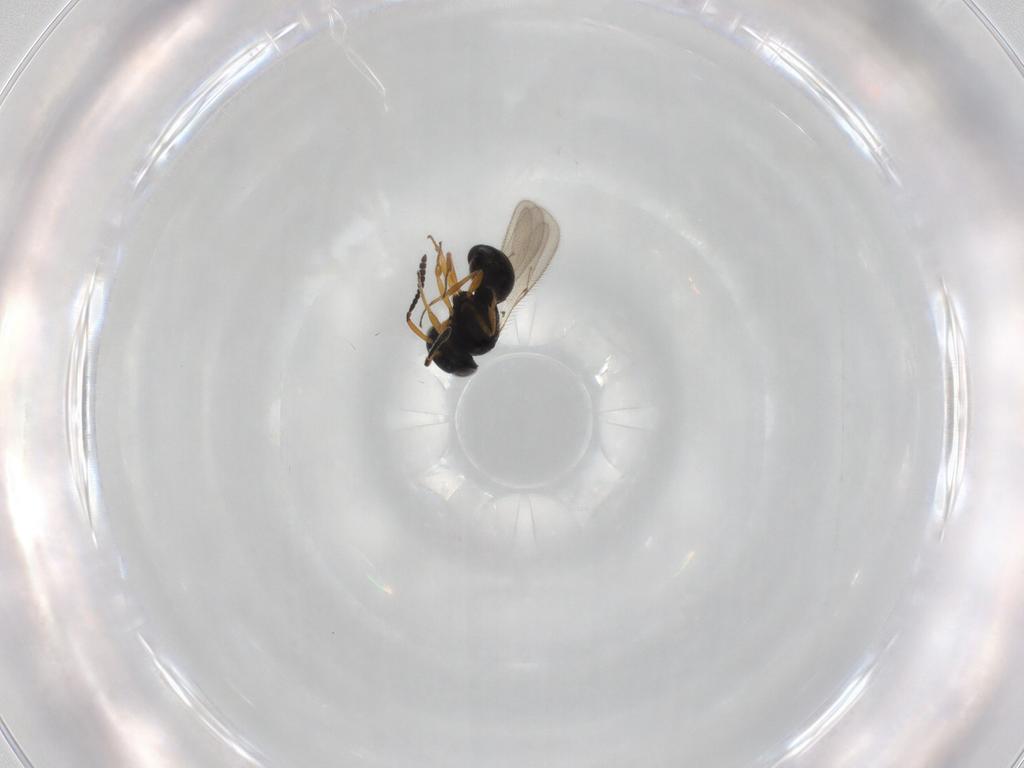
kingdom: Animalia
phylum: Arthropoda
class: Insecta
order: Hymenoptera
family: Scelionidae
